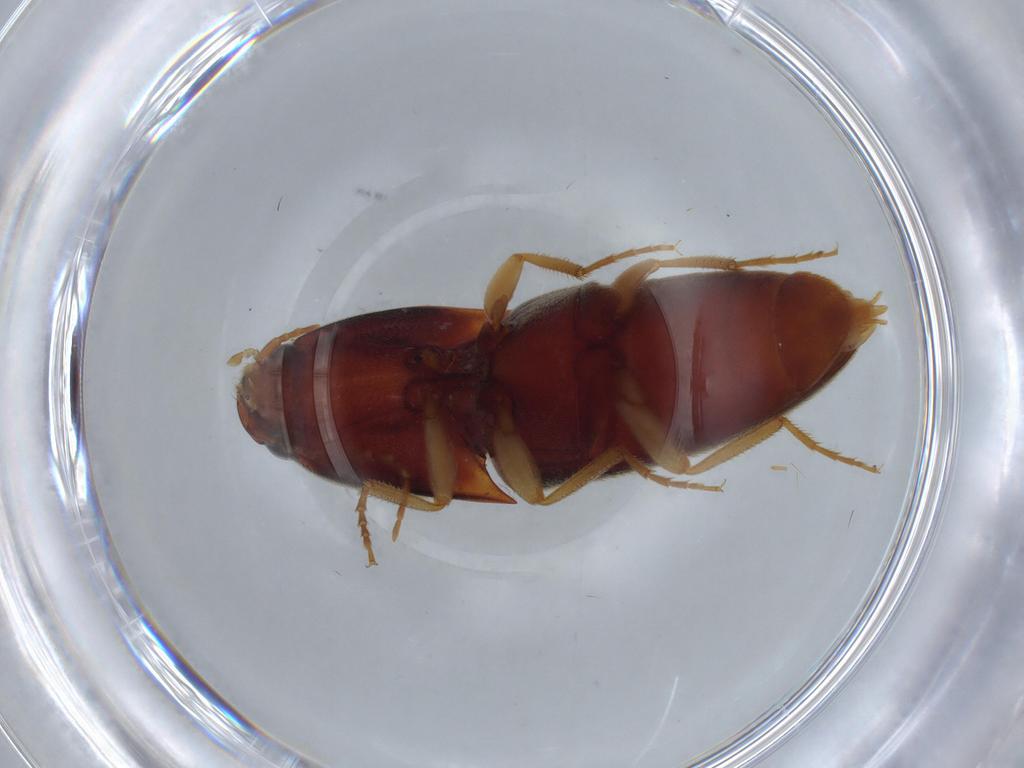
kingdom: Animalia
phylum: Arthropoda
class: Insecta
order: Coleoptera
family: Elateridae
